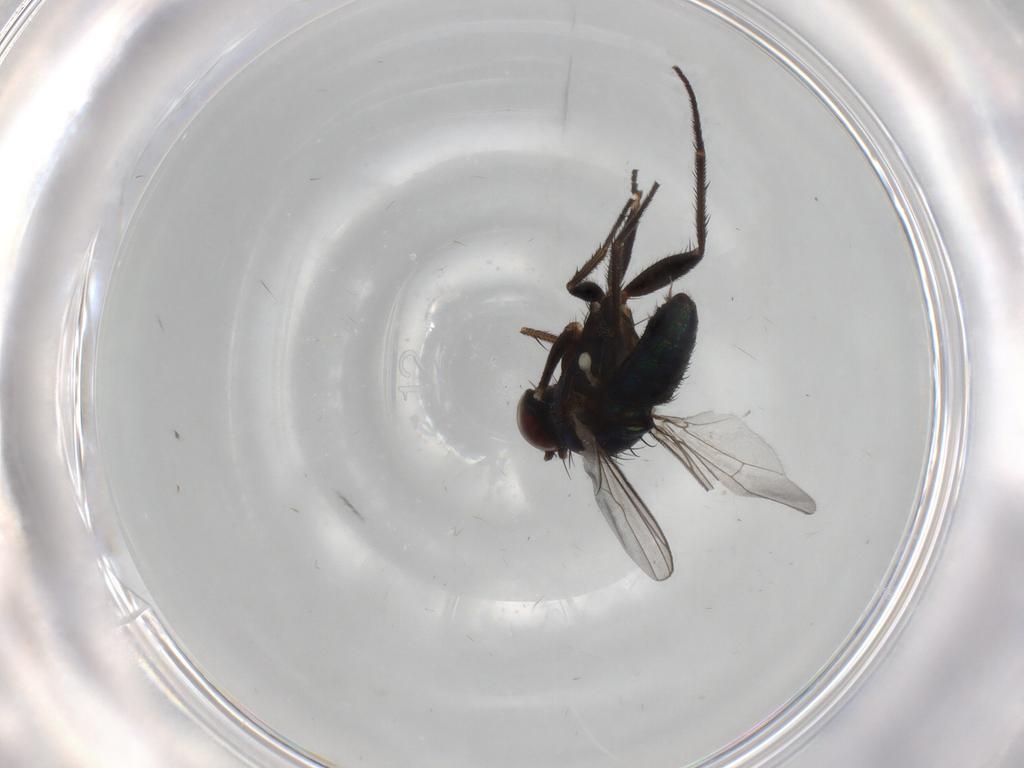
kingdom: Animalia
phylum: Arthropoda
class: Insecta
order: Diptera
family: Dolichopodidae
